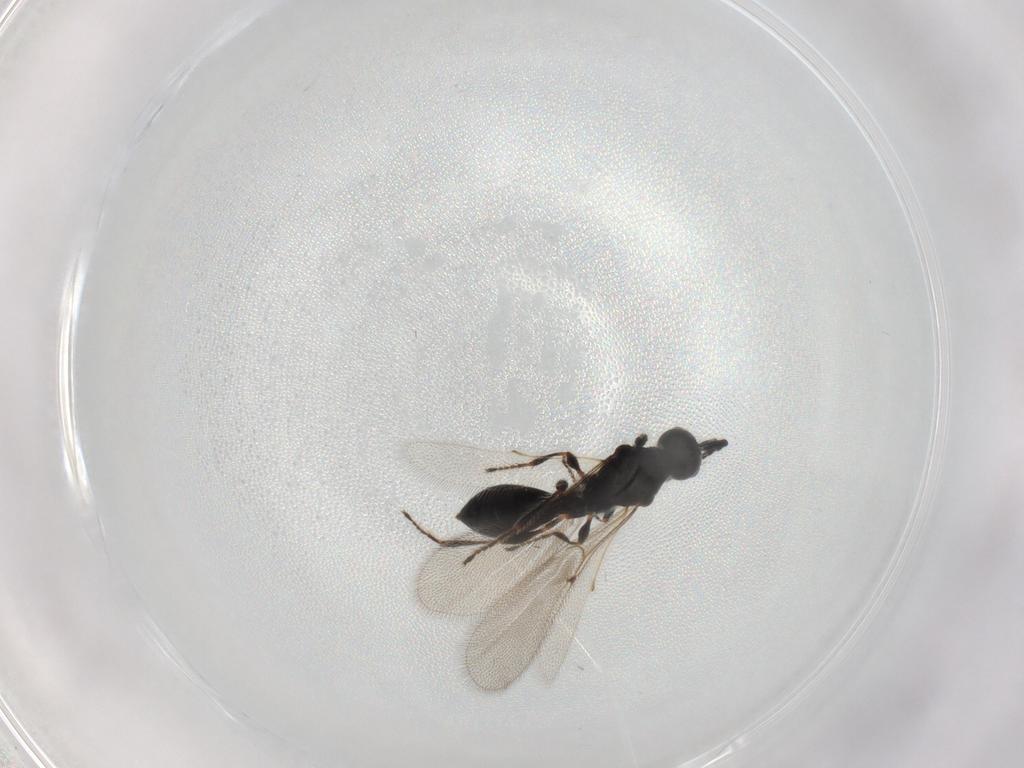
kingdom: Animalia
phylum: Arthropoda
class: Insecta
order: Hymenoptera
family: Diapriidae
